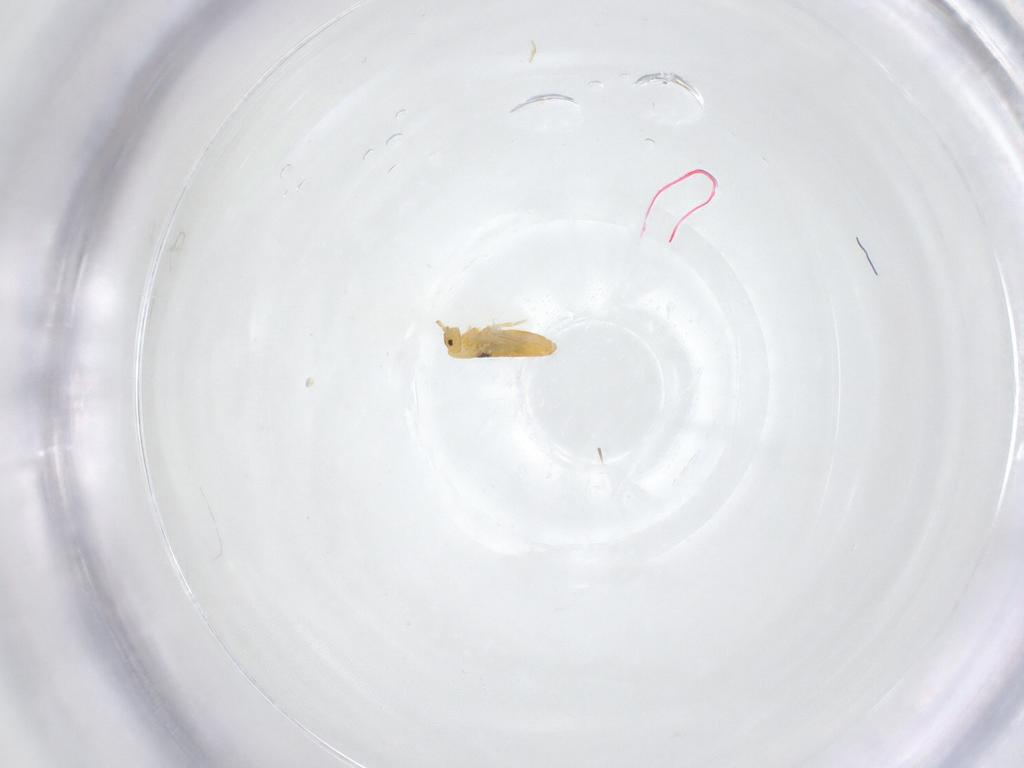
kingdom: Animalia
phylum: Arthropoda
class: Collembola
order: Entomobryomorpha
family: Entomobryidae
